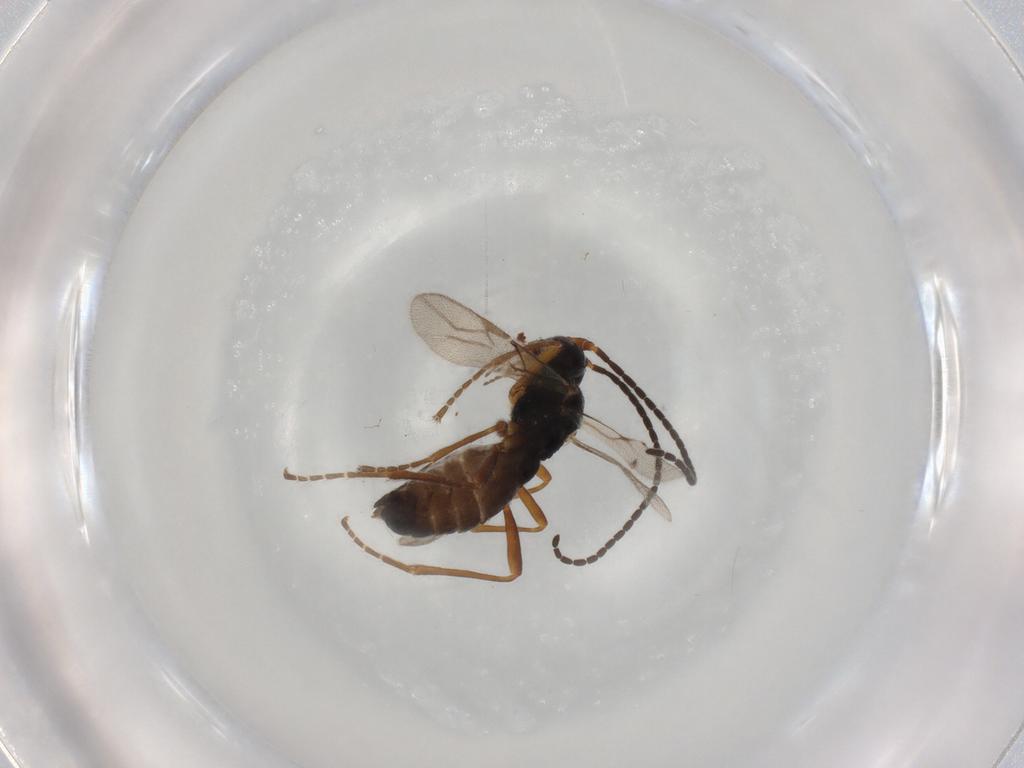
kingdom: Animalia
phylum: Arthropoda
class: Insecta
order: Hymenoptera
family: Braconidae
